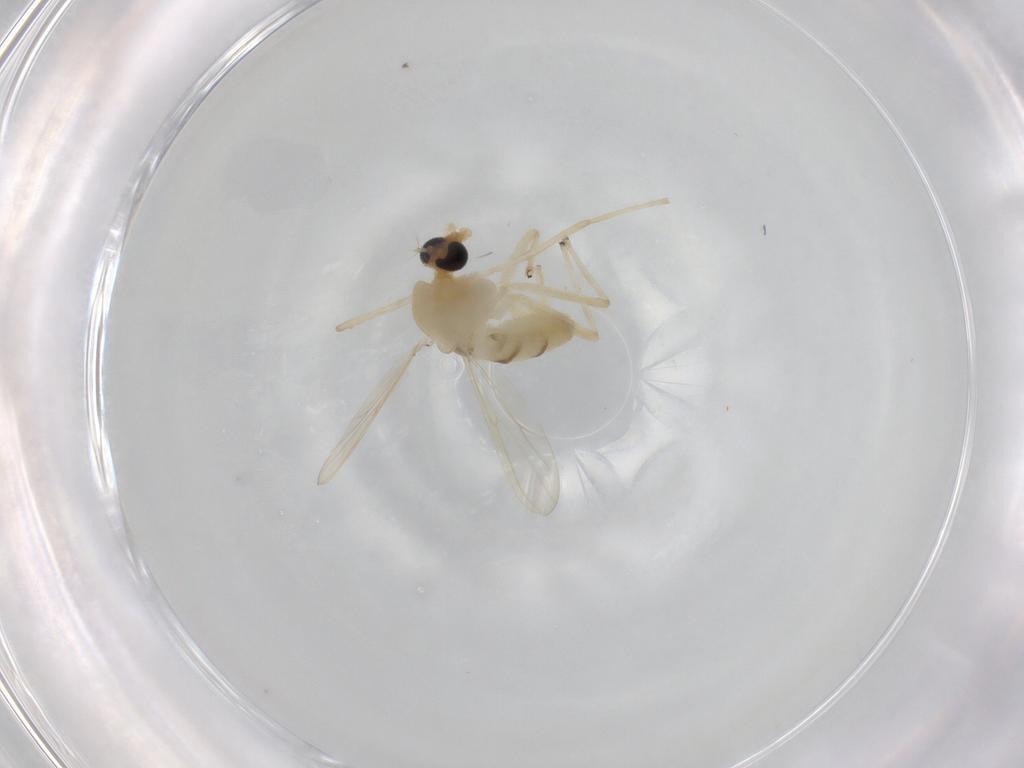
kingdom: Animalia
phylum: Arthropoda
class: Insecta
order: Diptera
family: Chironomidae
